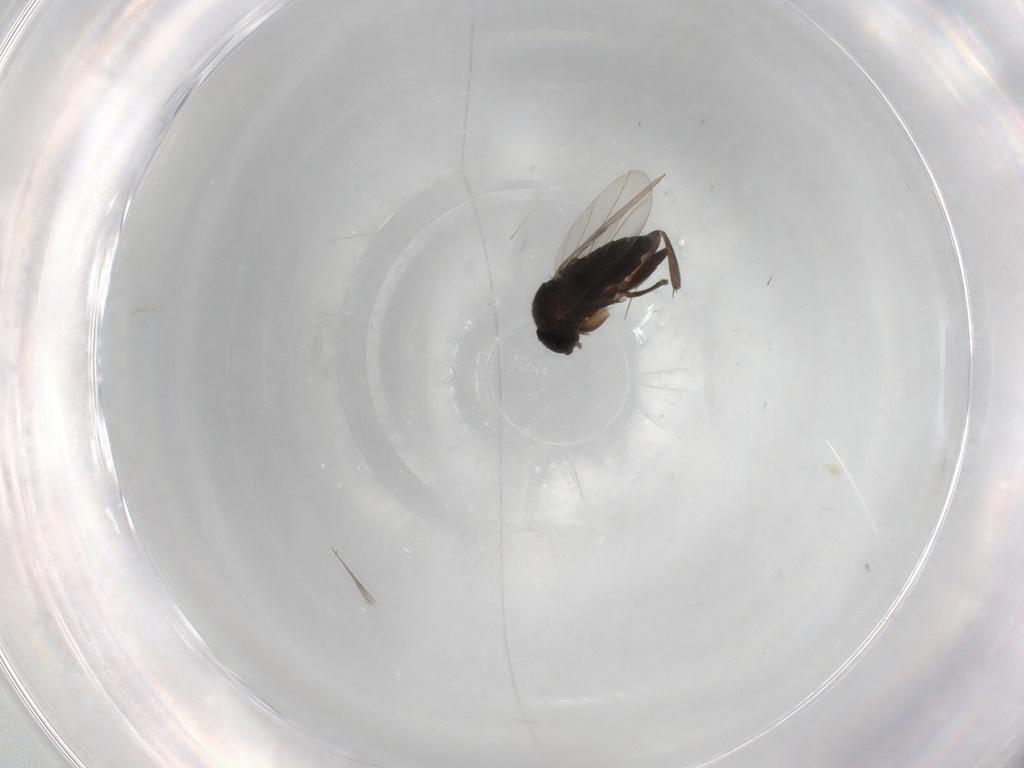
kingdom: Animalia
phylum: Arthropoda
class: Insecta
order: Diptera
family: Phoridae
